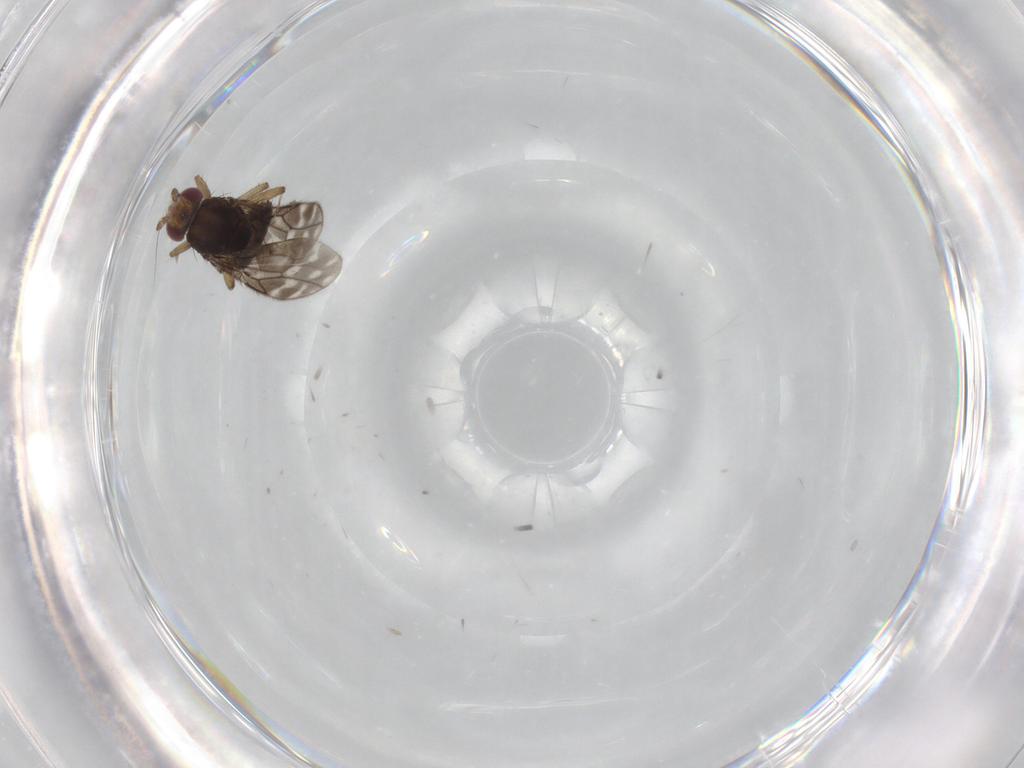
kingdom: Animalia
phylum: Arthropoda
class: Insecta
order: Diptera
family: Sphaeroceridae
